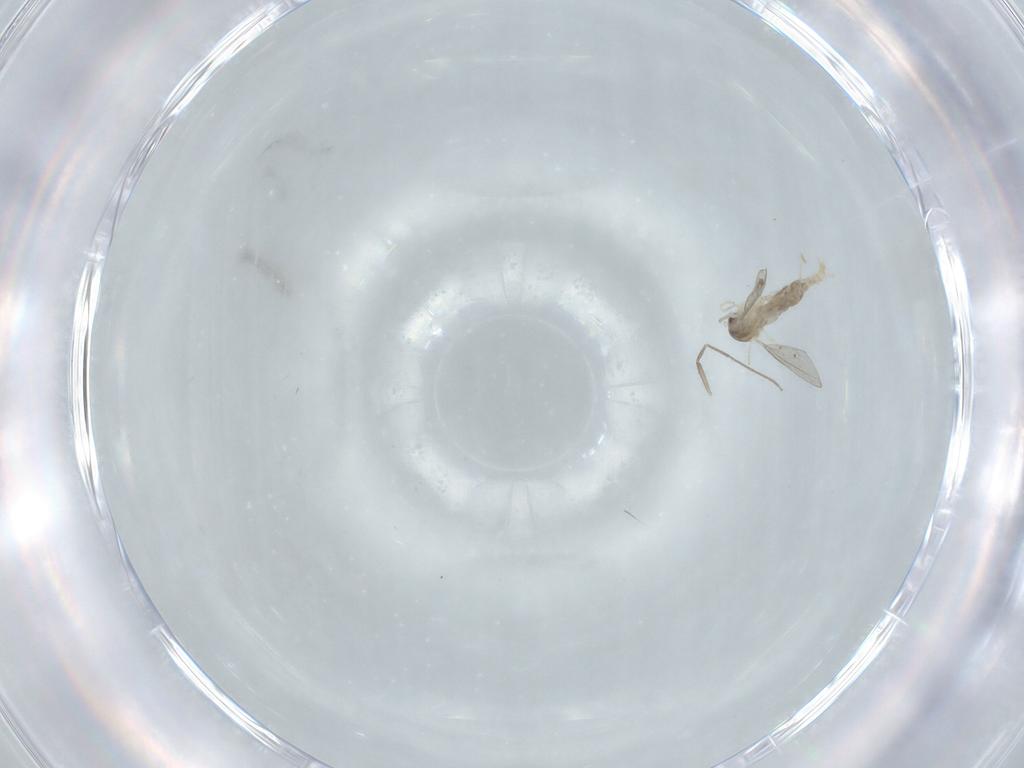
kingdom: Animalia
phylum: Arthropoda
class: Insecta
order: Diptera
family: Cecidomyiidae
